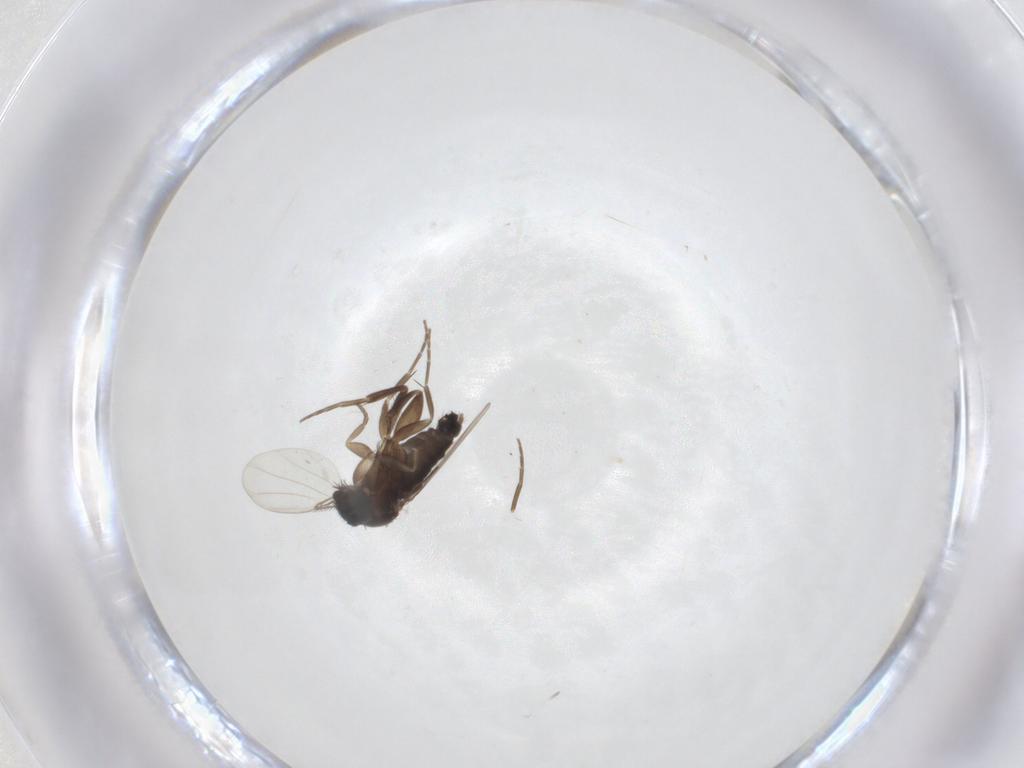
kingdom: Animalia
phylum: Arthropoda
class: Insecta
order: Diptera
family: Phoridae
